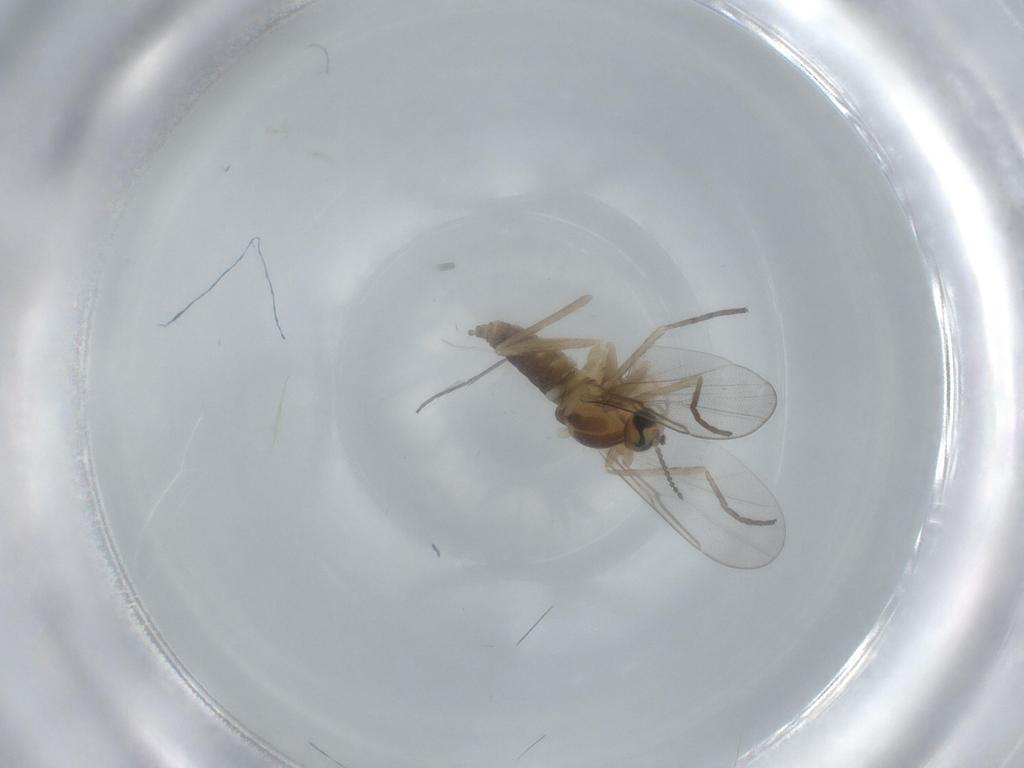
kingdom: Animalia
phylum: Arthropoda
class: Insecta
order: Diptera
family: Cecidomyiidae
